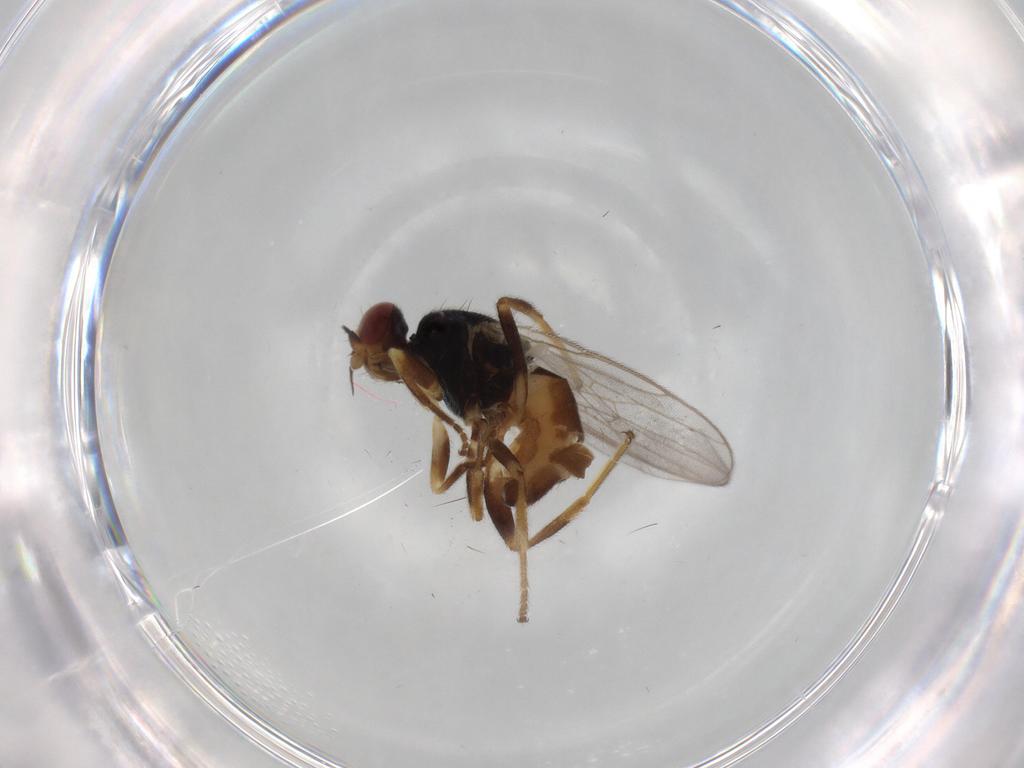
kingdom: Animalia
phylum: Arthropoda
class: Insecta
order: Diptera
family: Chloropidae
